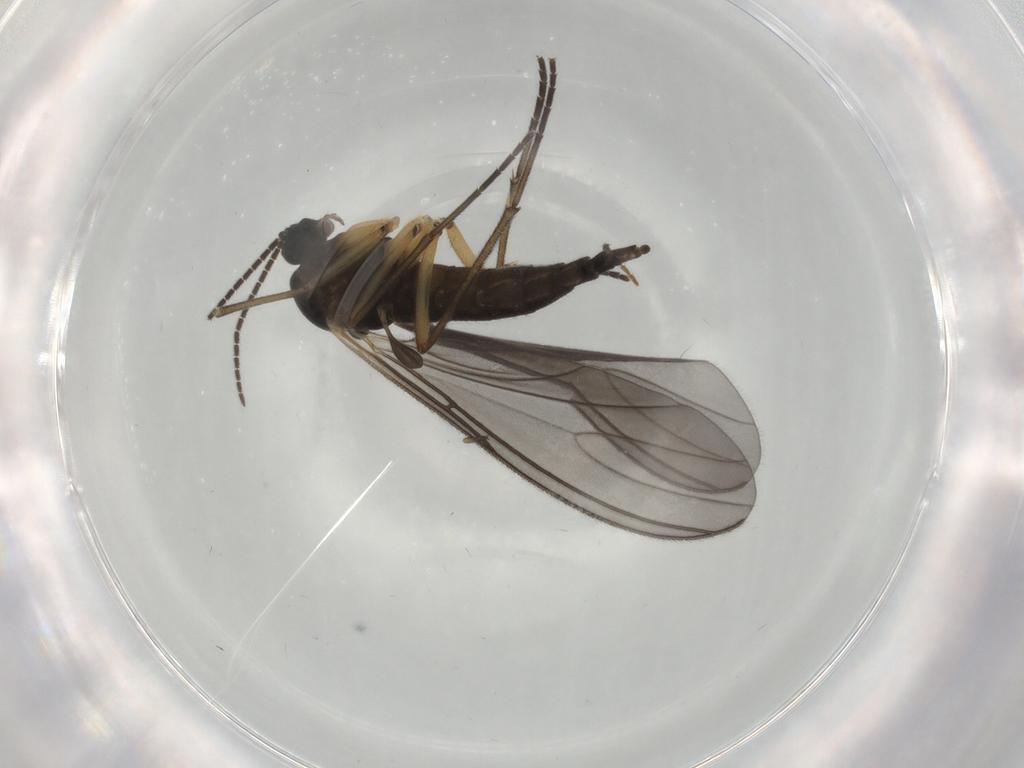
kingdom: Animalia
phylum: Arthropoda
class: Insecta
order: Diptera
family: Sciaridae
